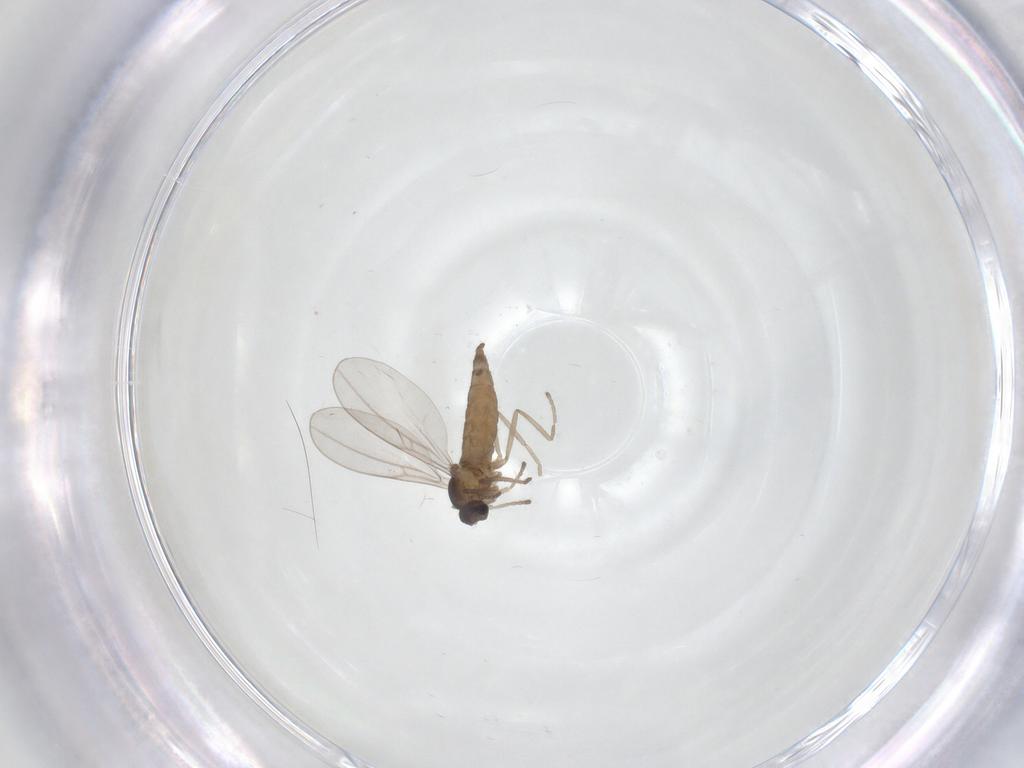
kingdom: Animalia
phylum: Arthropoda
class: Insecta
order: Diptera
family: Cecidomyiidae
